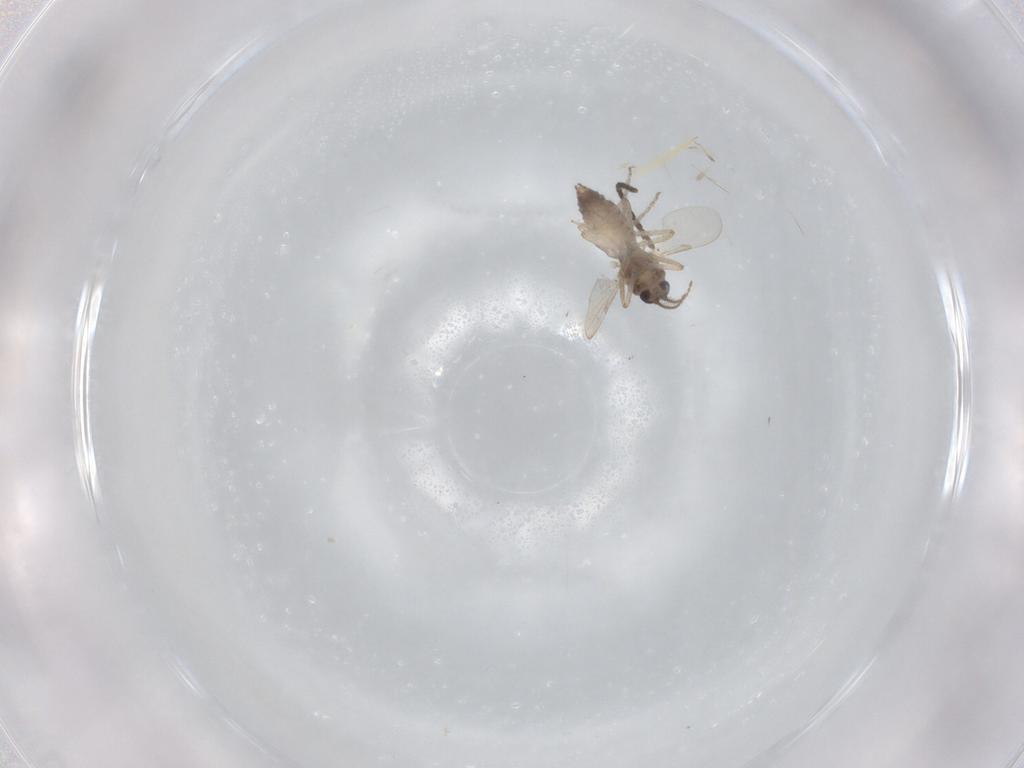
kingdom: Animalia
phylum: Arthropoda
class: Insecta
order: Diptera
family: Ceratopogonidae
